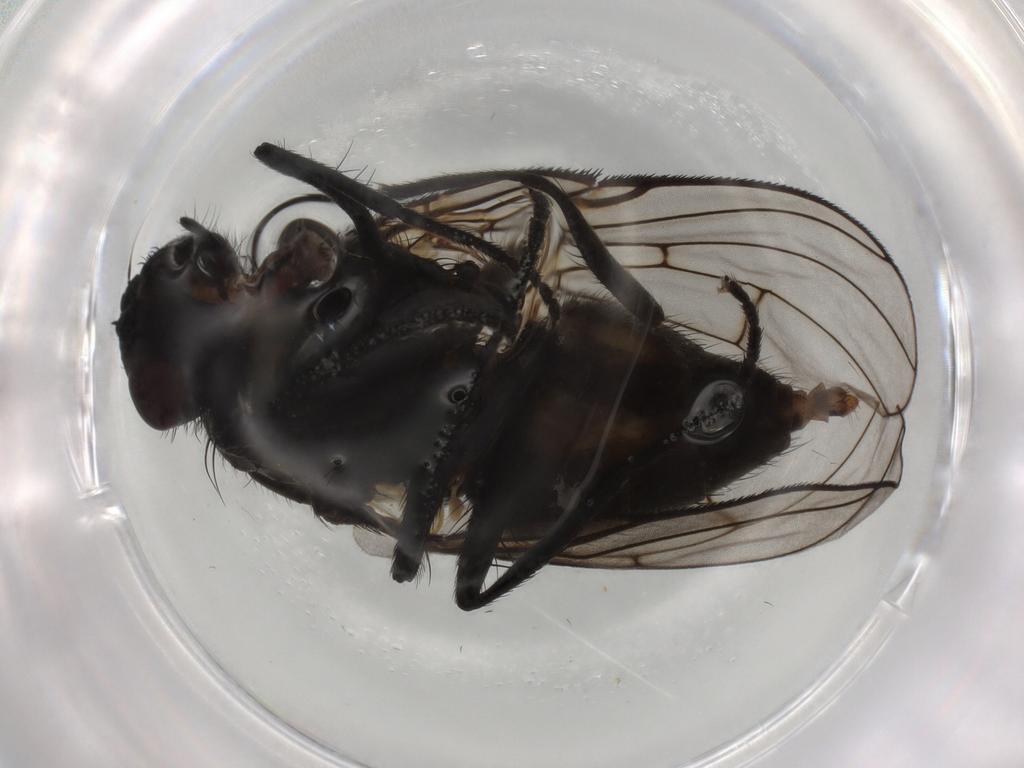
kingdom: Animalia
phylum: Arthropoda
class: Insecta
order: Diptera
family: Chironomidae
